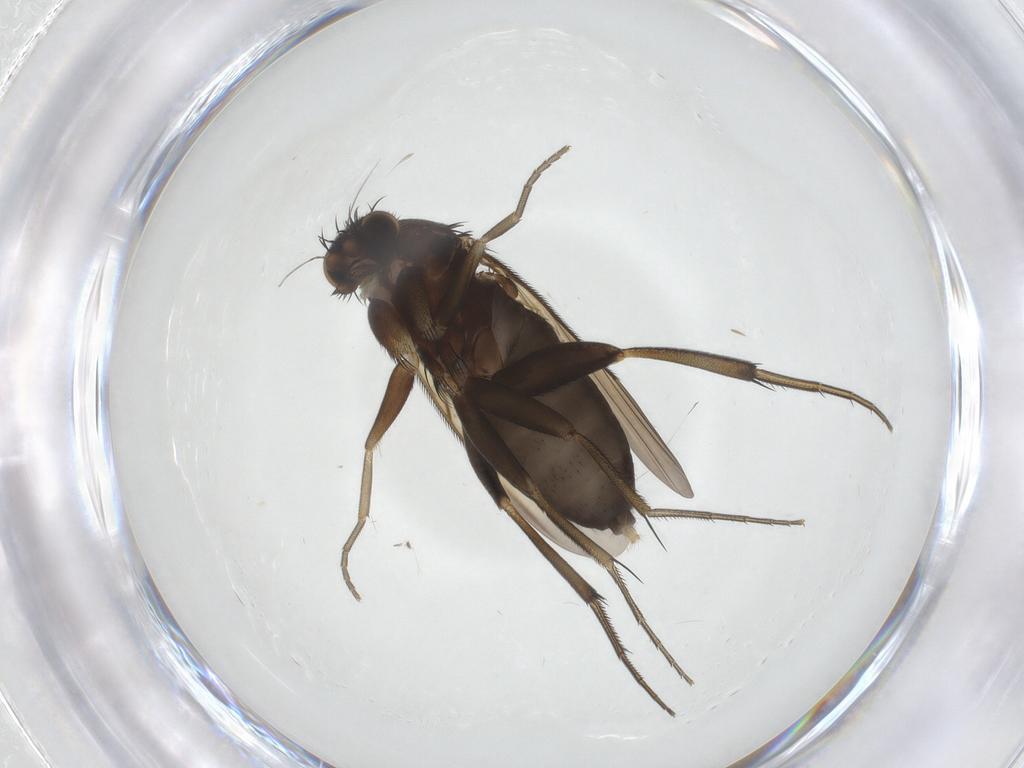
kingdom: Animalia
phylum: Arthropoda
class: Insecta
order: Diptera
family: Phoridae
